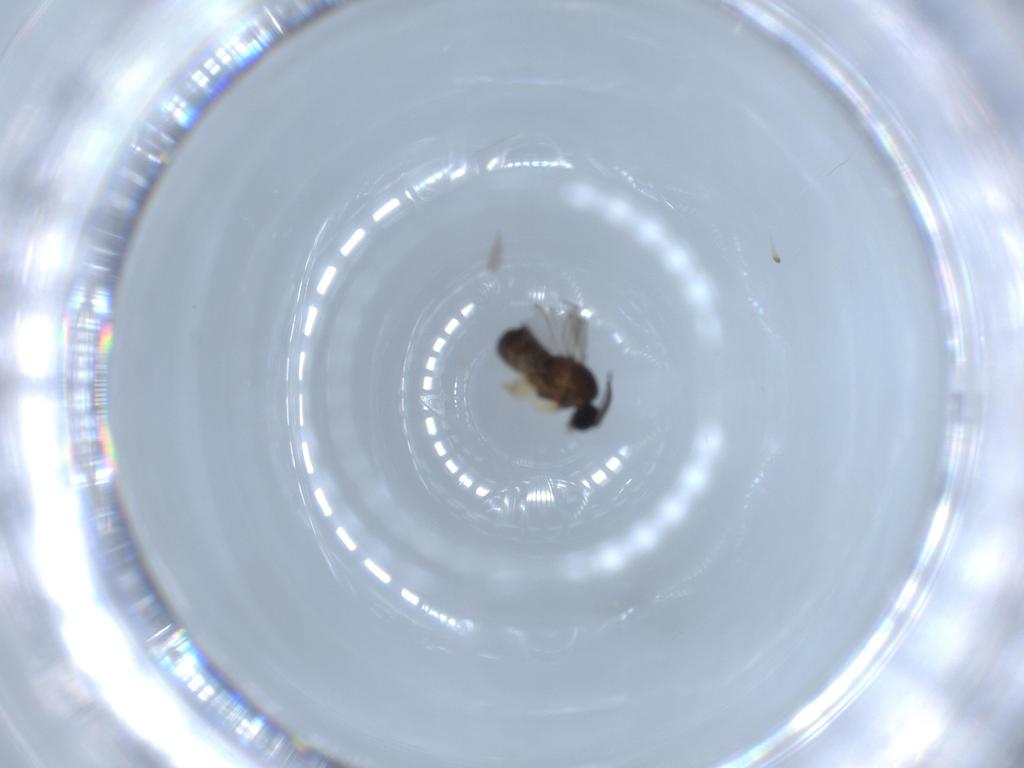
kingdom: Animalia
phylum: Arthropoda
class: Insecta
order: Diptera
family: Sciaridae
